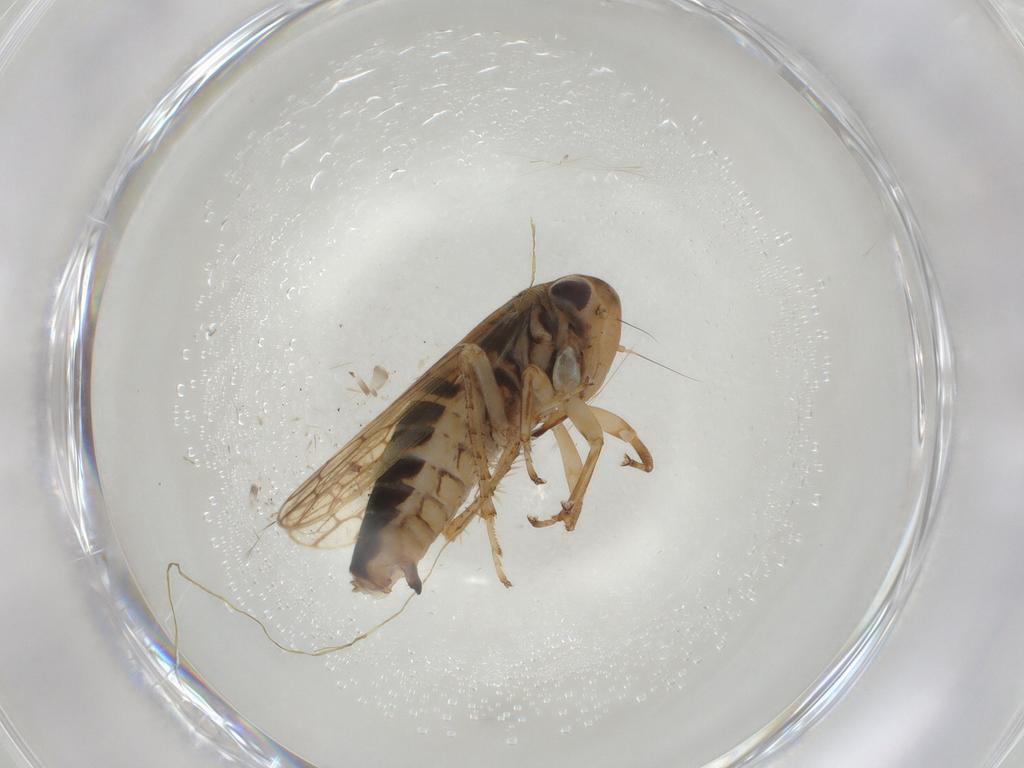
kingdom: Animalia
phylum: Arthropoda
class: Insecta
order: Hemiptera
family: Cicadellidae
